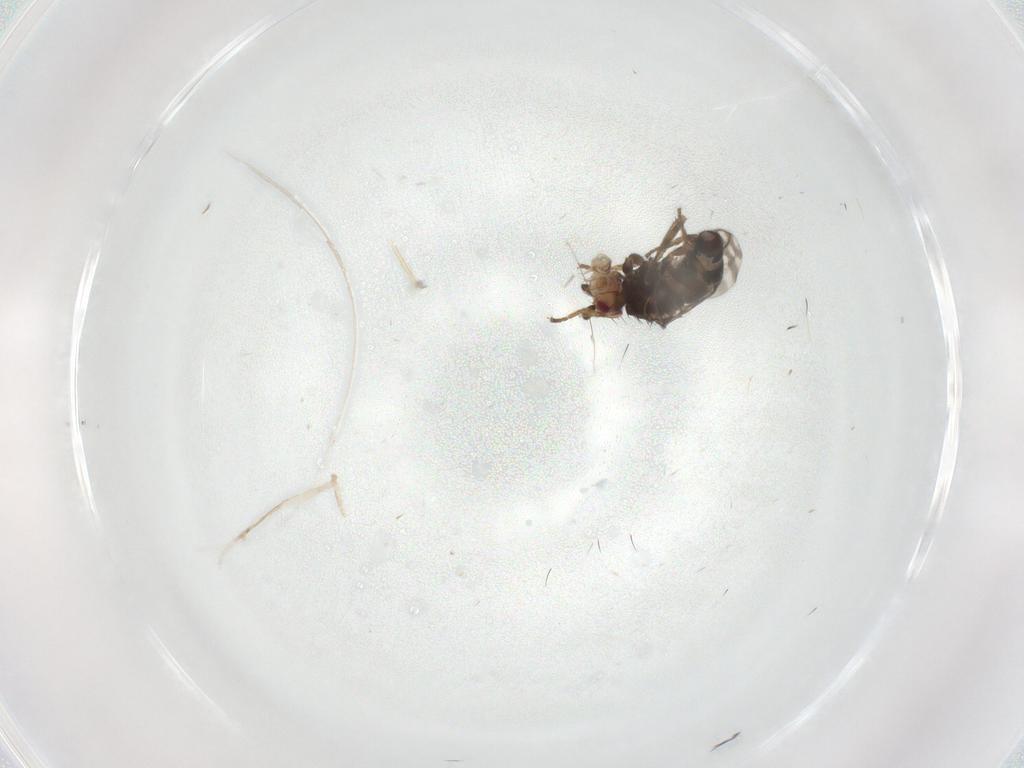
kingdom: Animalia
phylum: Arthropoda
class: Insecta
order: Diptera
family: Sphaeroceridae
